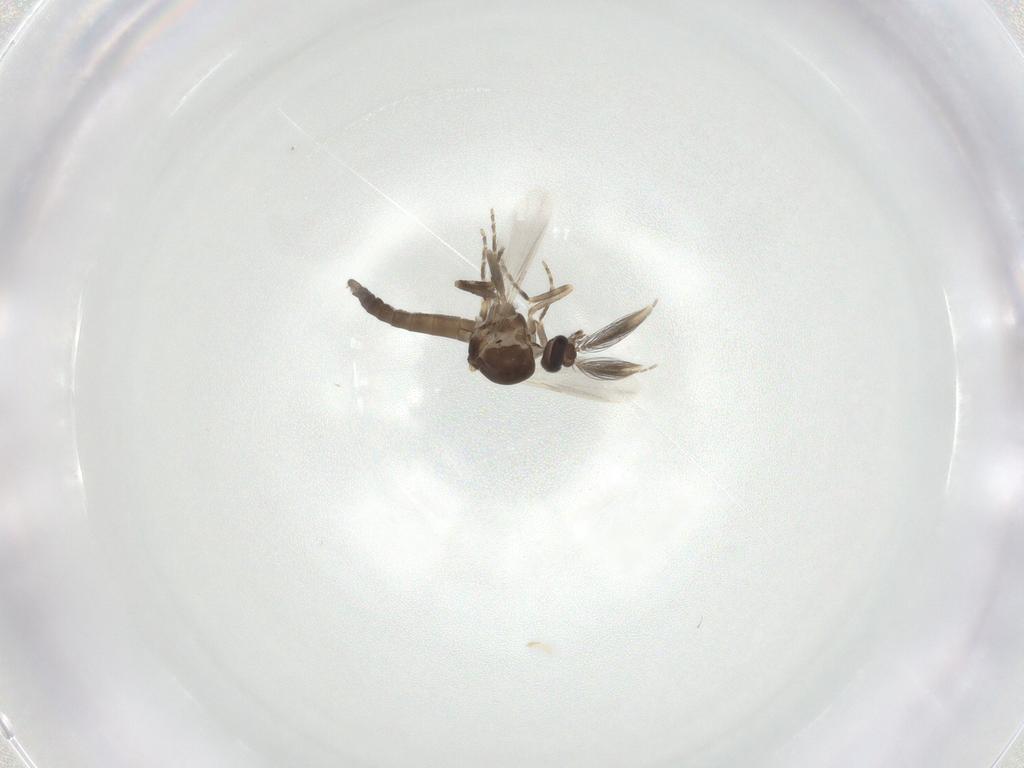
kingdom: Animalia
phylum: Arthropoda
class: Insecta
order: Diptera
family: Ceratopogonidae
